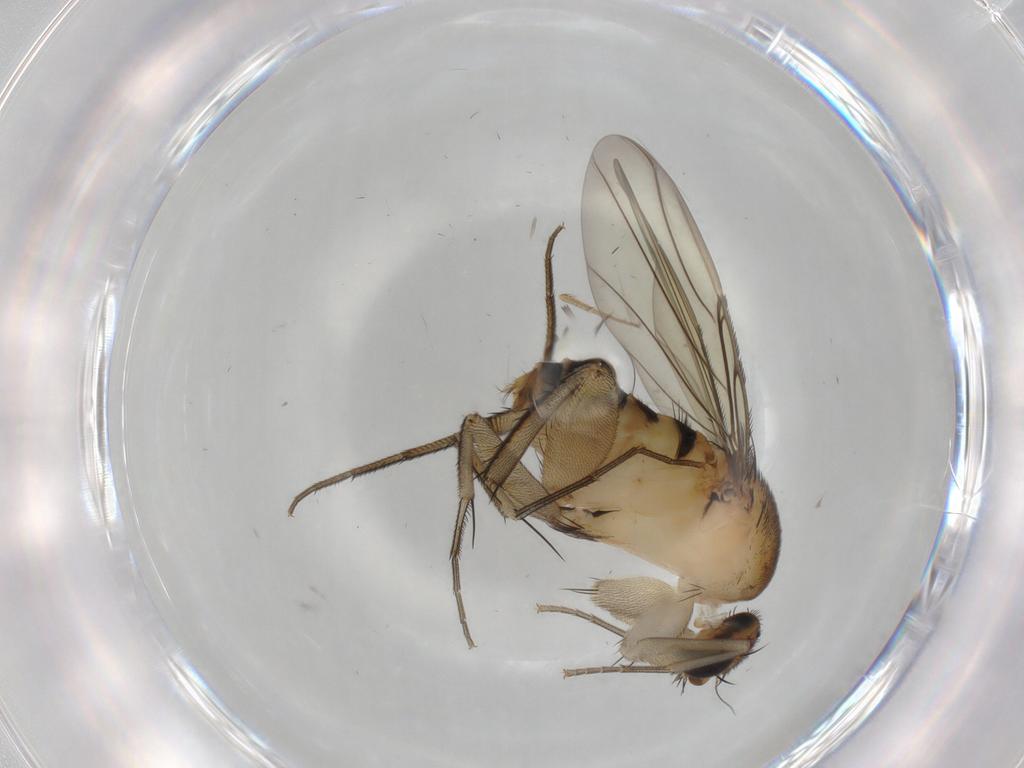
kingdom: Animalia
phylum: Arthropoda
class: Insecta
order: Diptera
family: Phoridae
